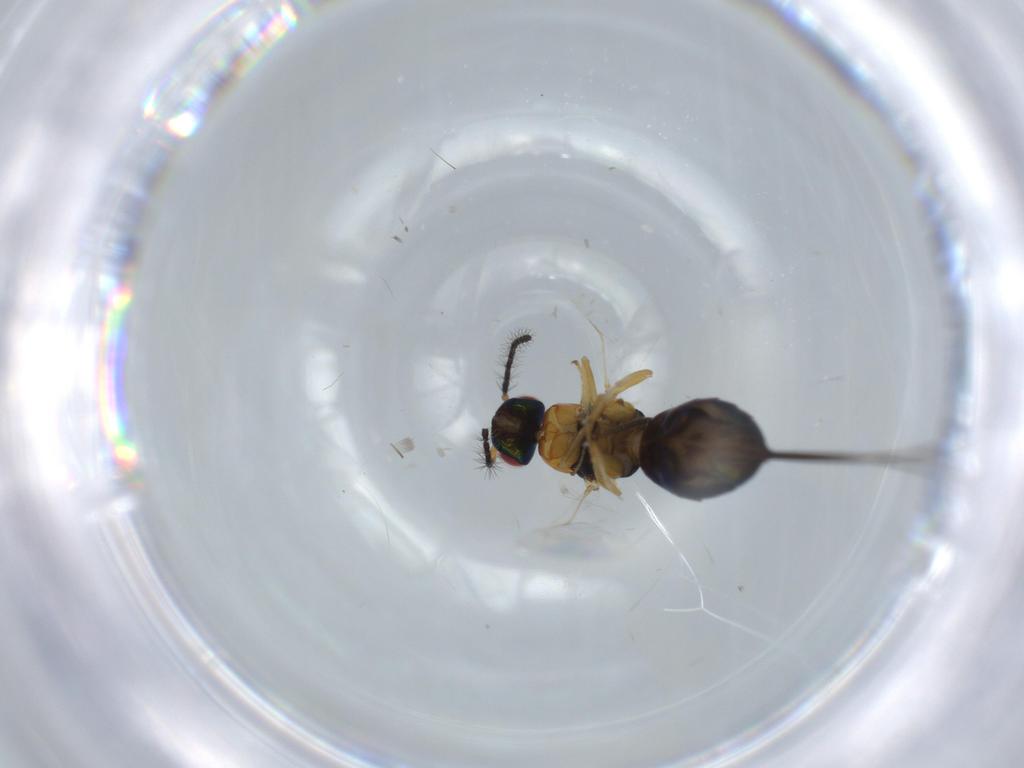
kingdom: Animalia
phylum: Arthropoda
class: Insecta
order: Hymenoptera
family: Agaonidae
